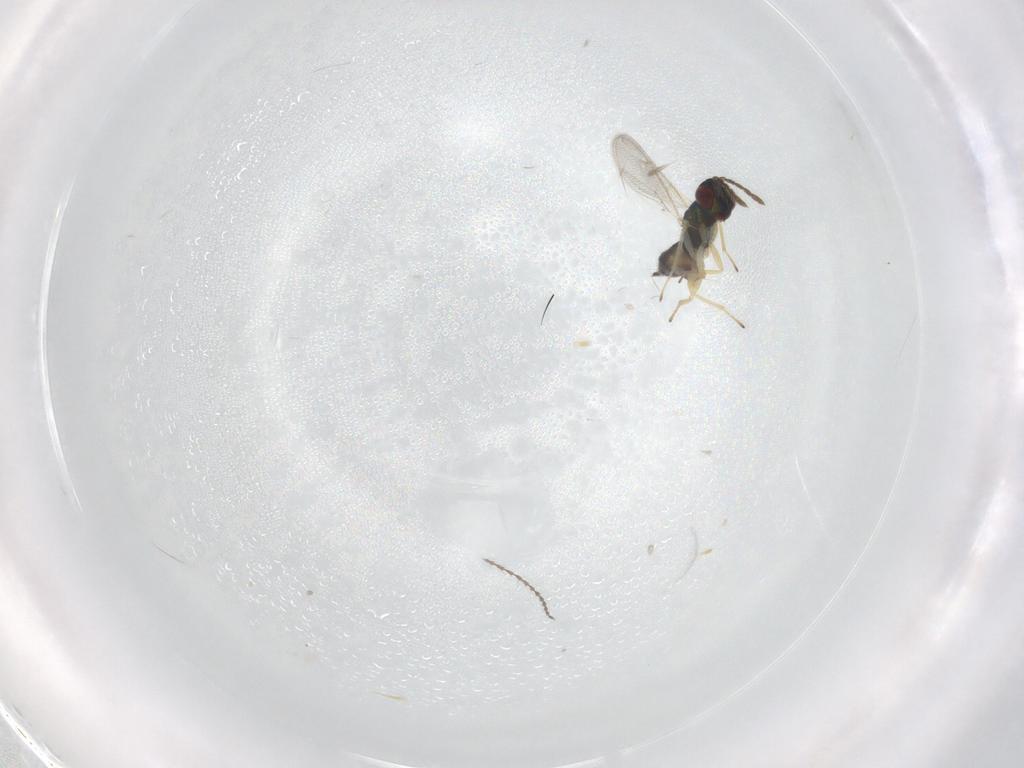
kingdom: Animalia
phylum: Arthropoda
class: Insecta
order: Hymenoptera
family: Eulophidae
